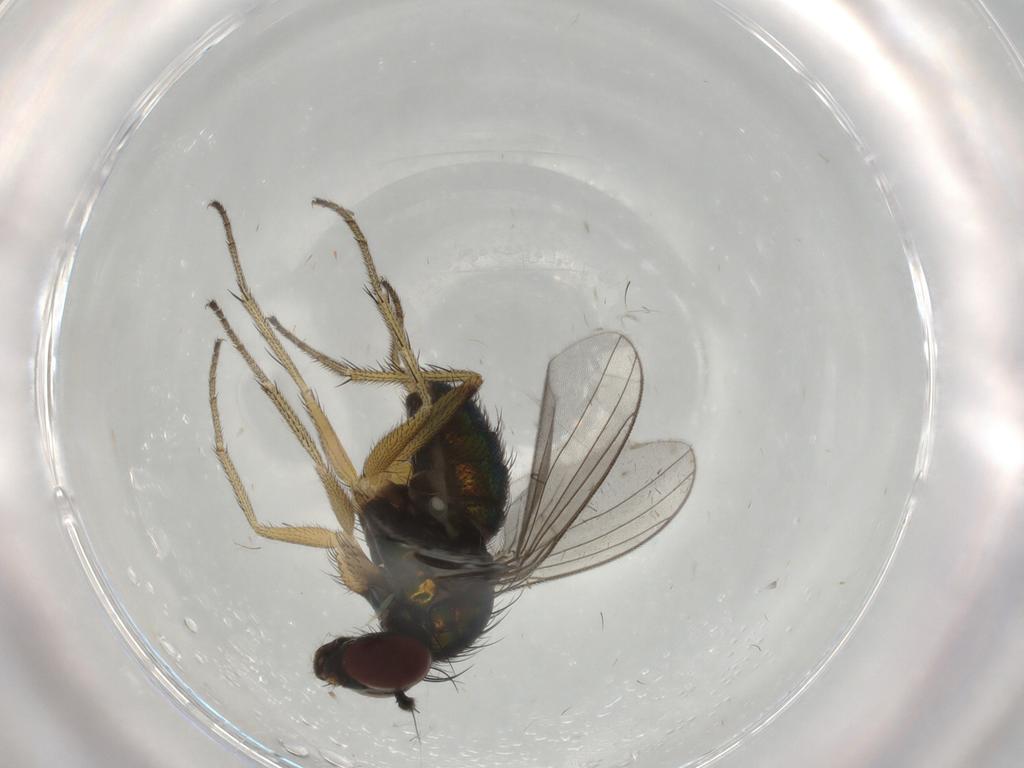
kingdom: Animalia
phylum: Arthropoda
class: Insecta
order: Diptera
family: Dolichopodidae
